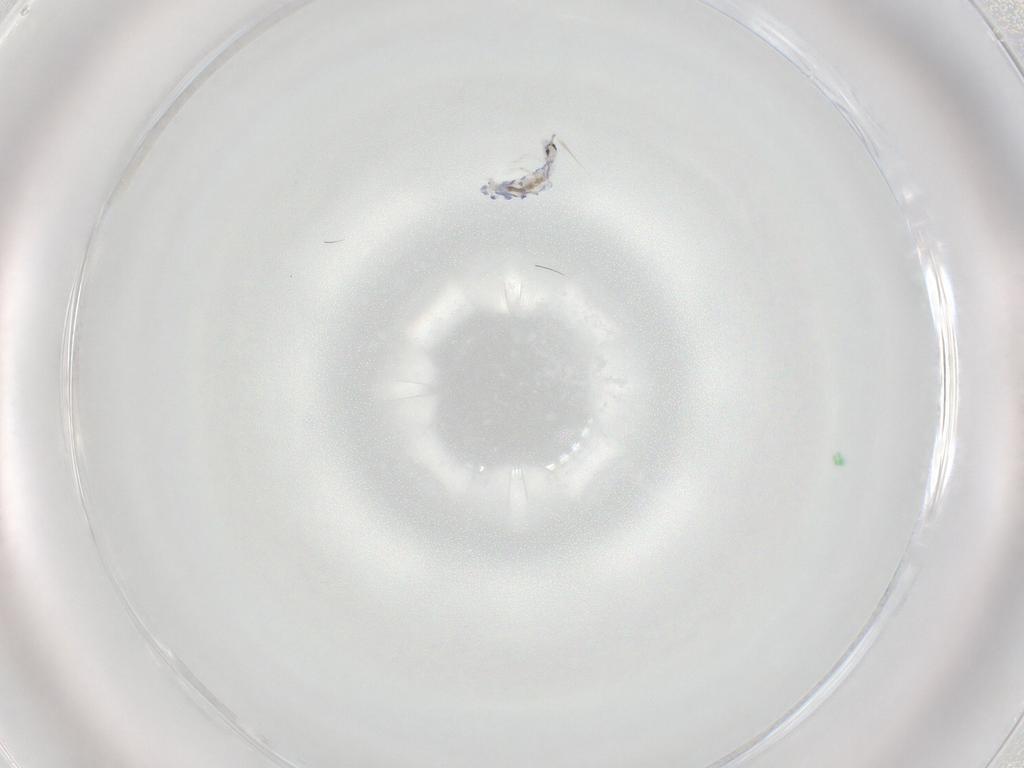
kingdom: Animalia
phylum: Arthropoda
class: Collembola
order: Entomobryomorpha
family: Entomobryidae
